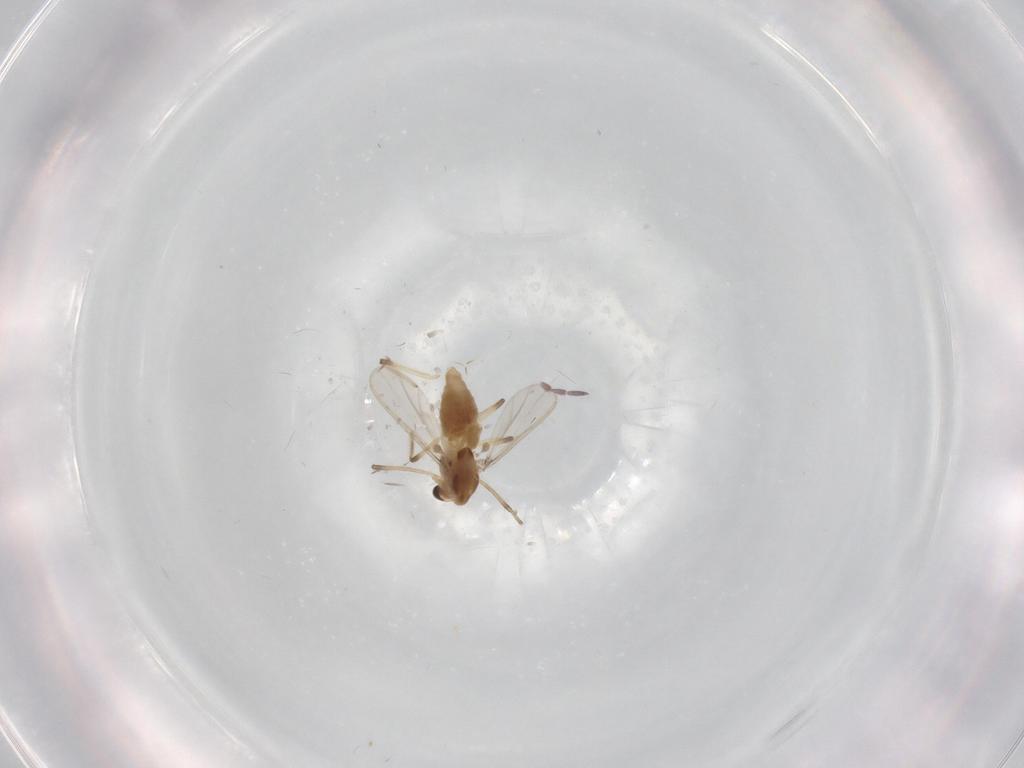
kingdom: Animalia
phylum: Arthropoda
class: Insecta
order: Diptera
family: Chironomidae
